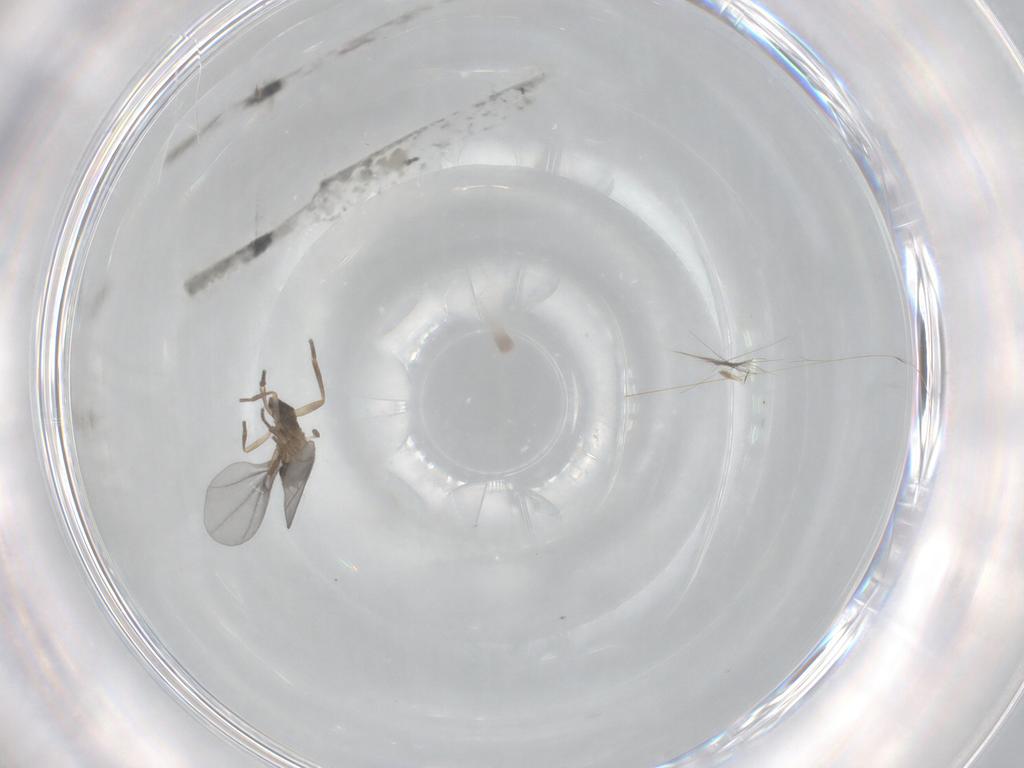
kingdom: Animalia
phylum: Arthropoda
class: Insecta
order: Diptera
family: Phoridae
